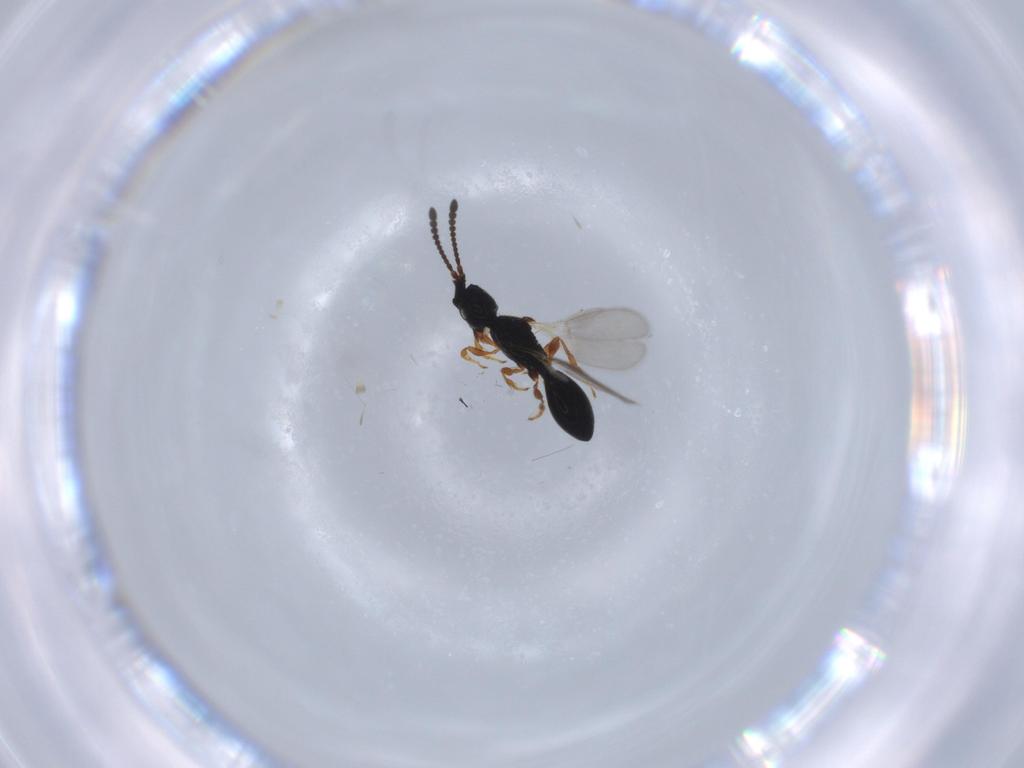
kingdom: Animalia
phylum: Arthropoda
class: Insecta
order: Hymenoptera
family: Diapriidae
